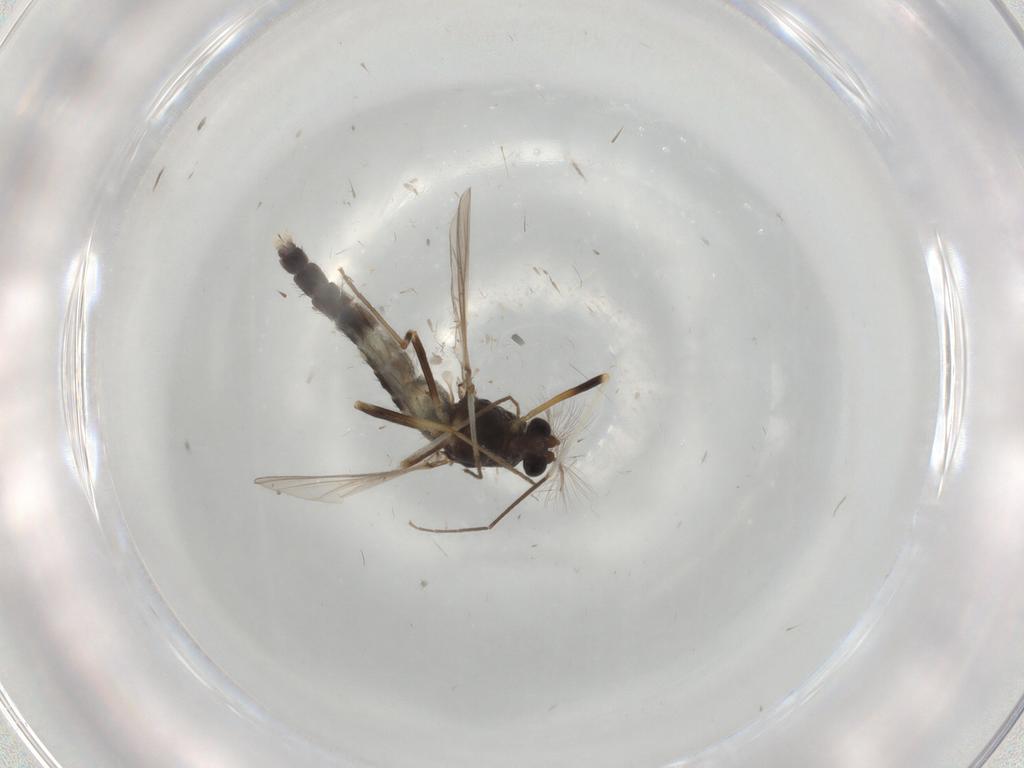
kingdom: Animalia
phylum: Arthropoda
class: Insecta
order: Diptera
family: Chironomidae
